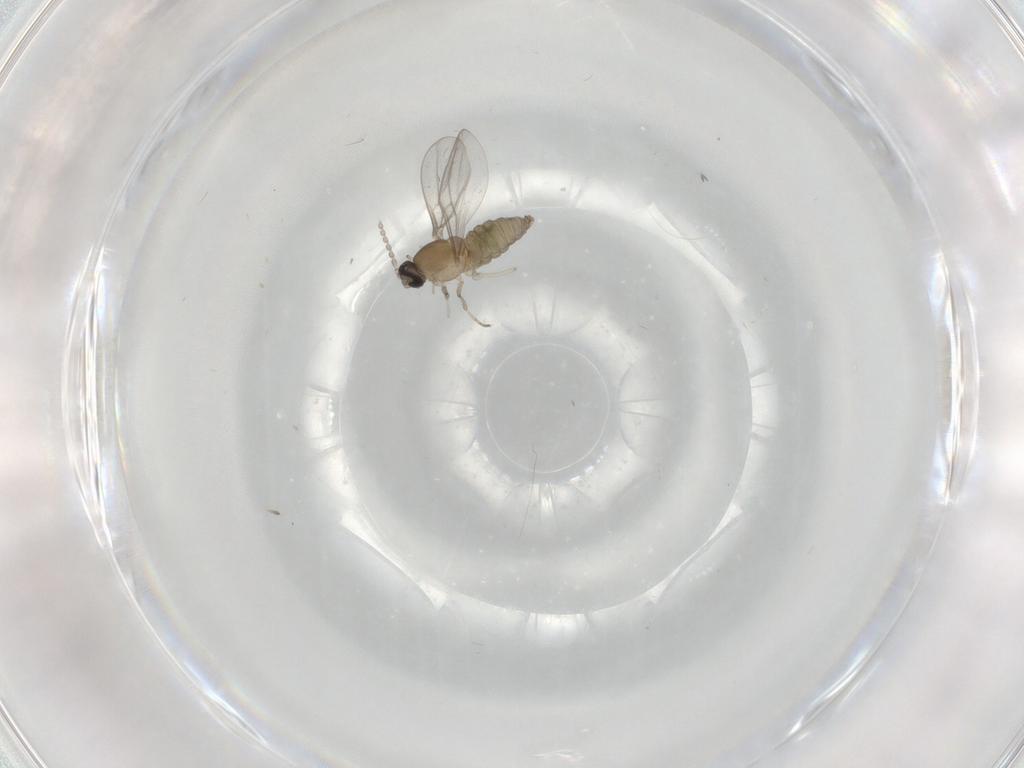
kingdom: Animalia
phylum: Arthropoda
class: Insecta
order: Diptera
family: Cecidomyiidae
